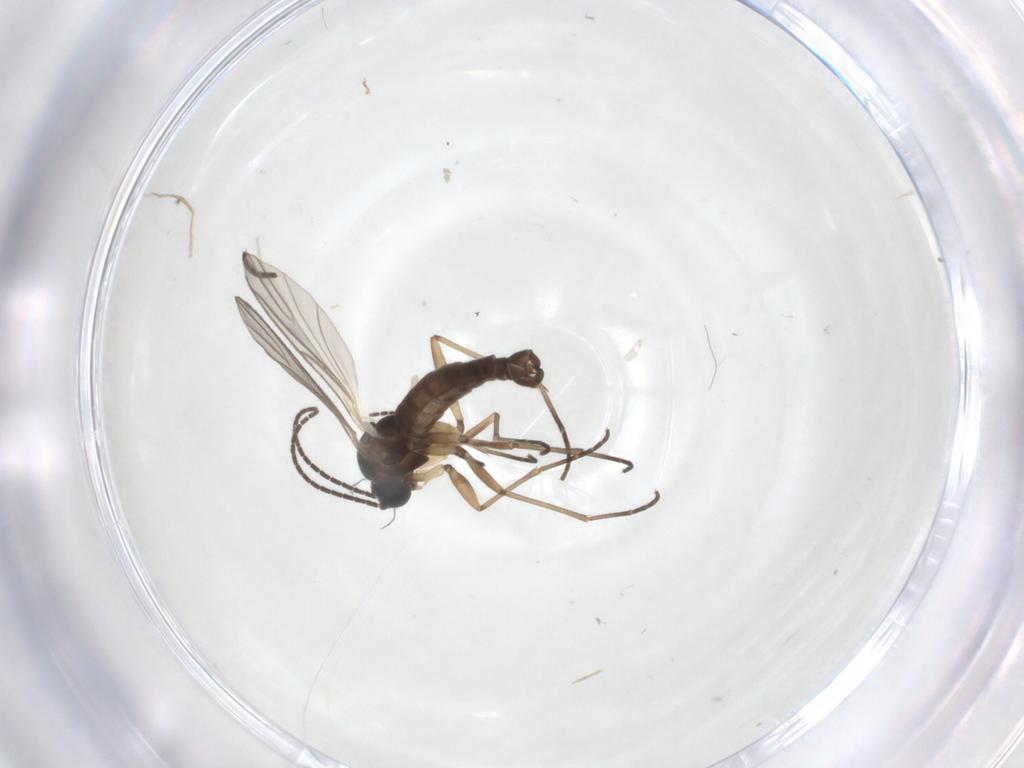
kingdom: Animalia
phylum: Arthropoda
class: Insecta
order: Diptera
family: Sciaridae
